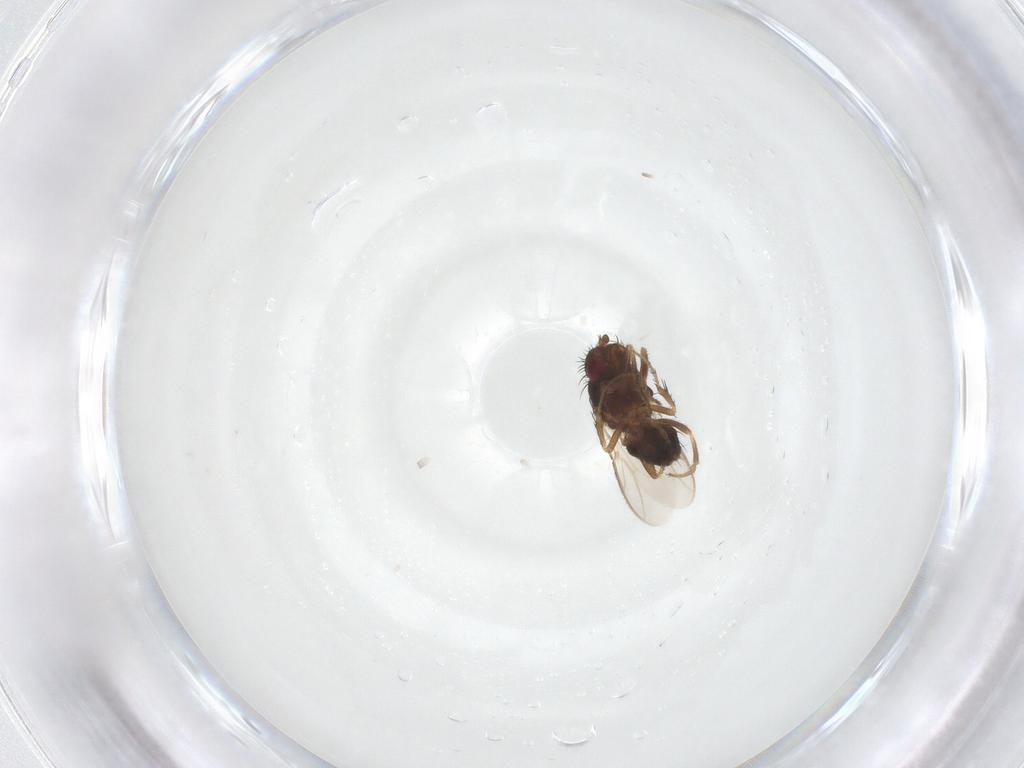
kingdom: Animalia
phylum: Arthropoda
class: Insecta
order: Diptera
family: Sphaeroceridae
